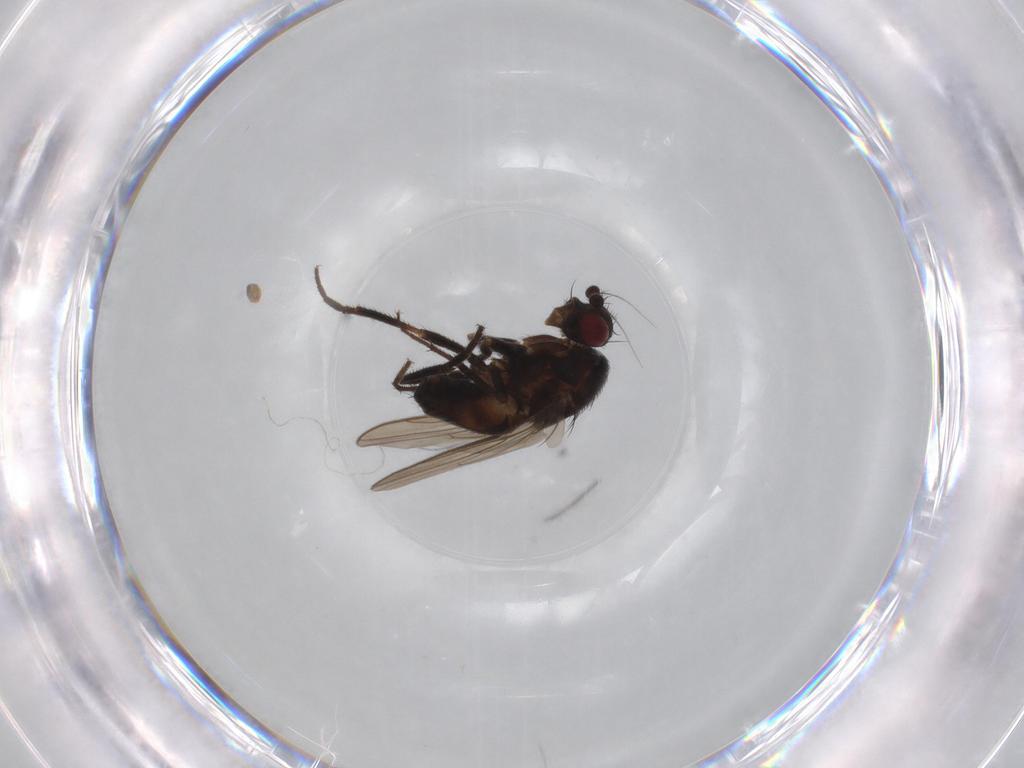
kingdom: Animalia
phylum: Arthropoda
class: Insecta
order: Diptera
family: Sphaeroceridae
